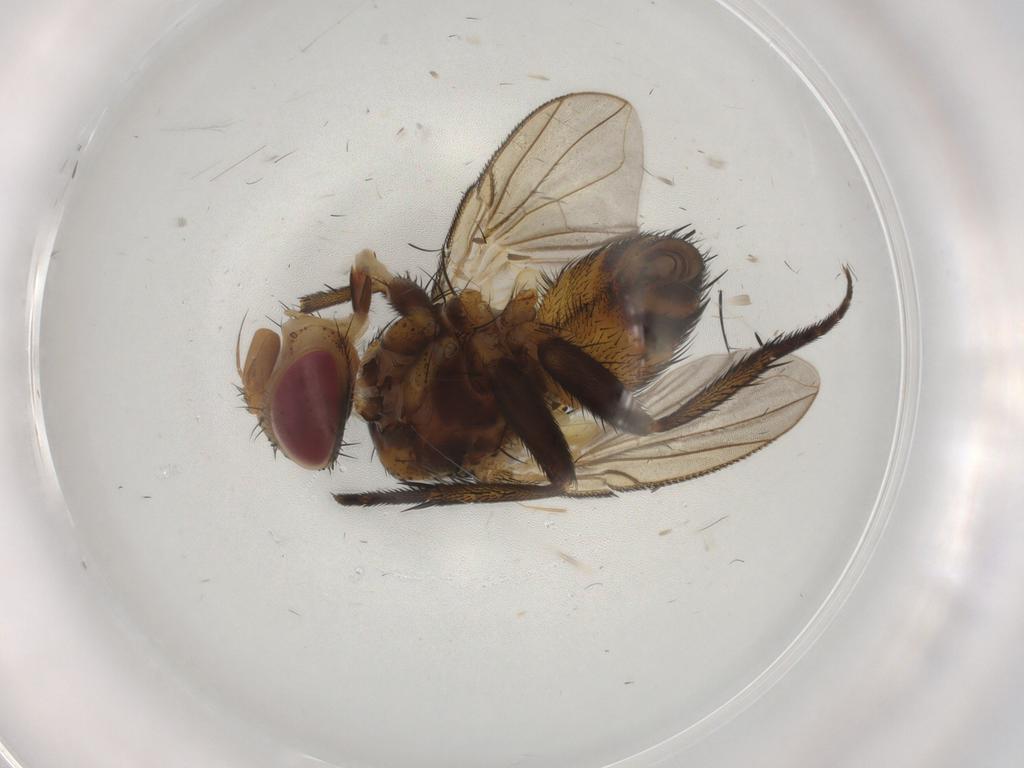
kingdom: Animalia
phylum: Arthropoda
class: Insecta
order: Diptera
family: Tachinidae
